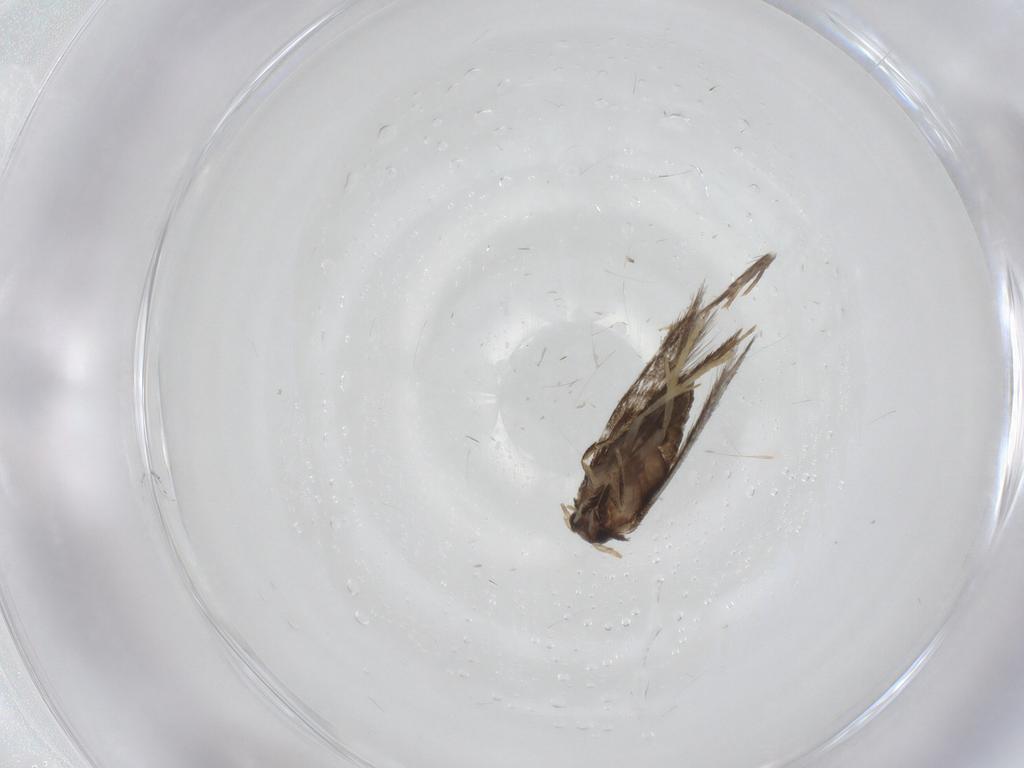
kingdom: Animalia
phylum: Arthropoda
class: Insecta
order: Lepidoptera
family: Nepticulidae
